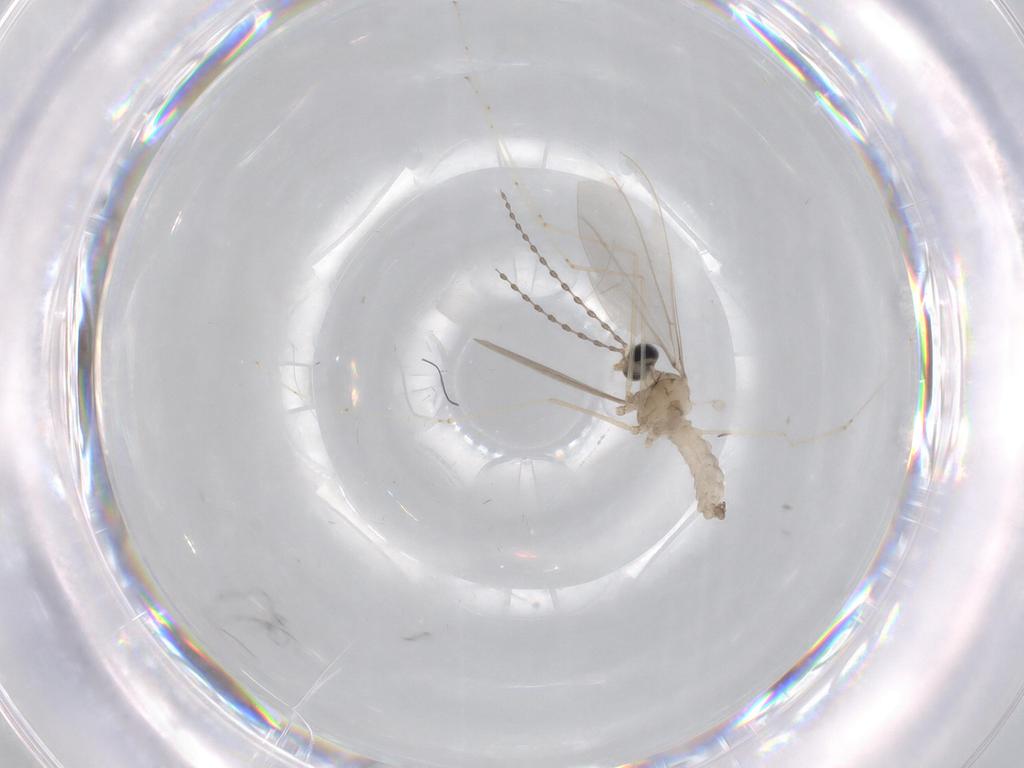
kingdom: Animalia
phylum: Arthropoda
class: Insecta
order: Diptera
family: Cecidomyiidae
